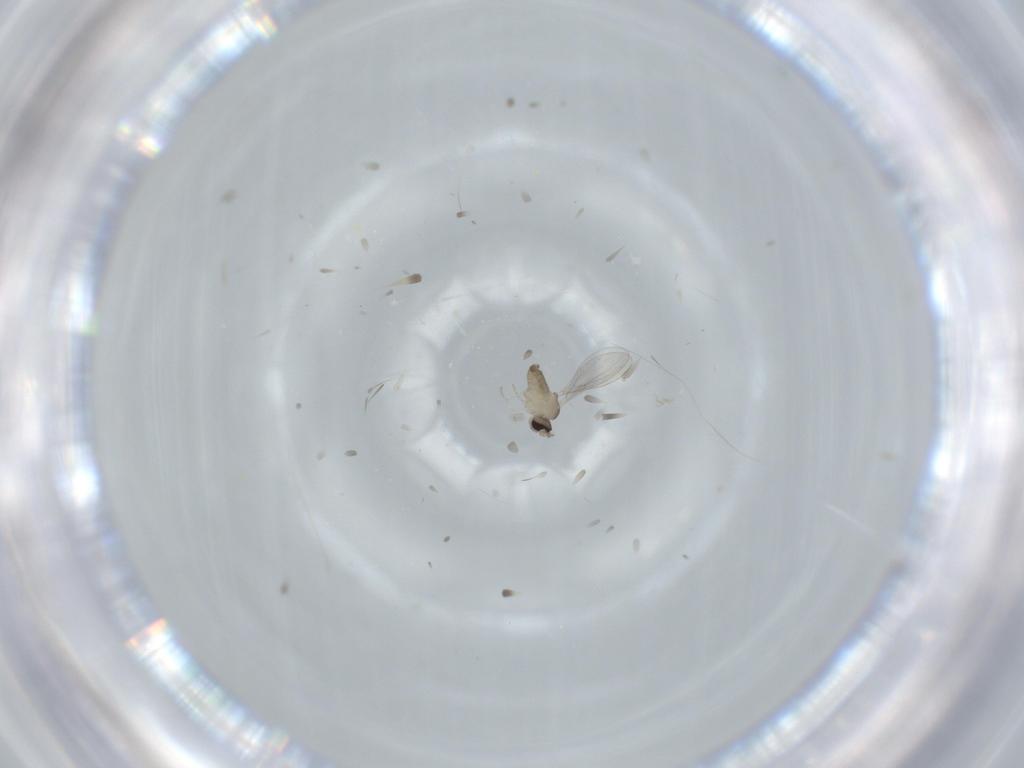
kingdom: Animalia
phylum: Arthropoda
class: Insecta
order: Diptera
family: Cecidomyiidae
